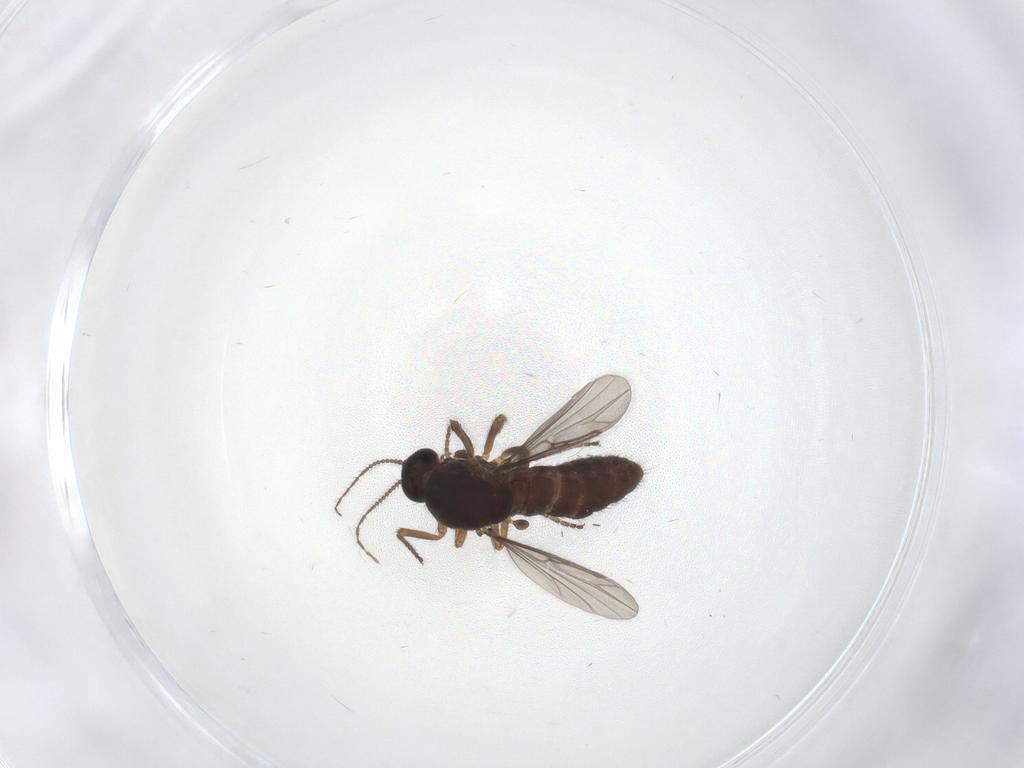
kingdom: Animalia
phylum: Arthropoda
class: Insecta
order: Diptera
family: Ceratopogonidae
